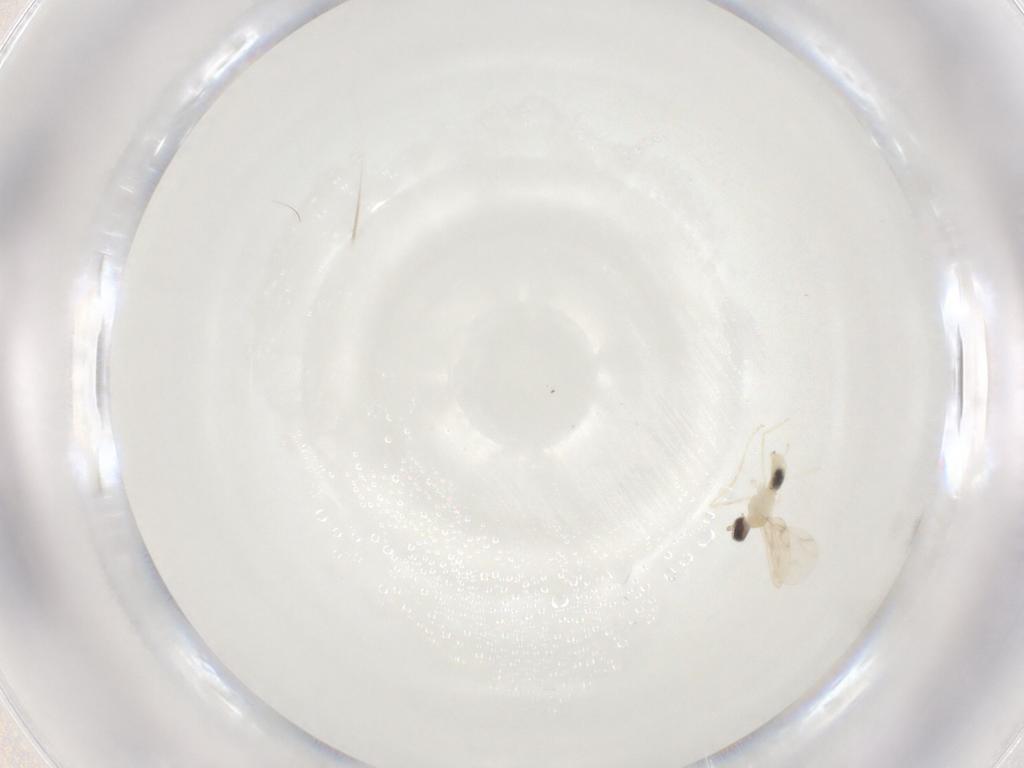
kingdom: Animalia
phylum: Arthropoda
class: Insecta
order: Diptera
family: Cecidomyiidae
